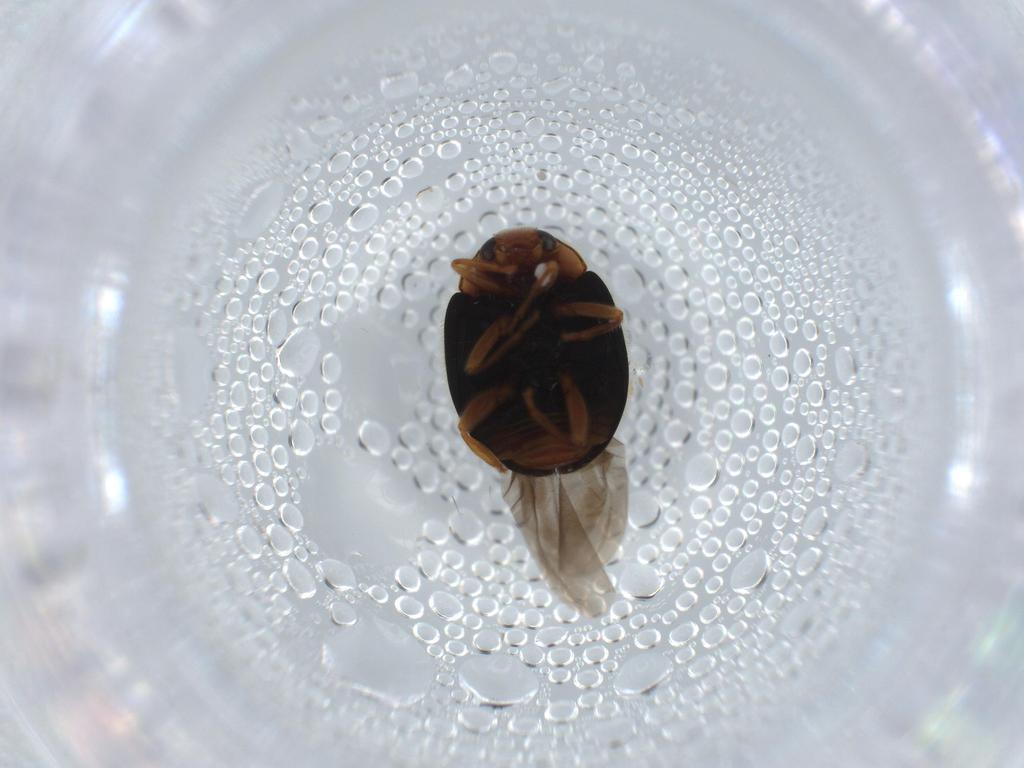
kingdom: Animalia
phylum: Arthropoda
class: Insecta
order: Coleoptera
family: Coccinellidae
